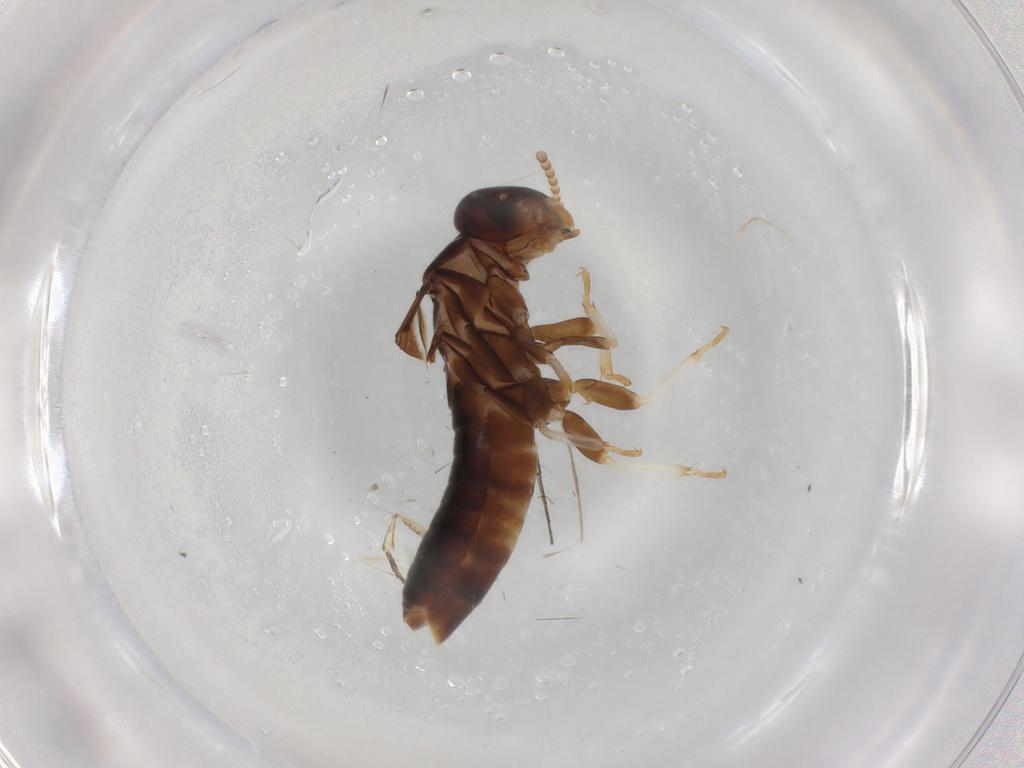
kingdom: Animalia
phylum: Arthropoda
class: Insecta
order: Blattodea
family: Kalotermitidae
